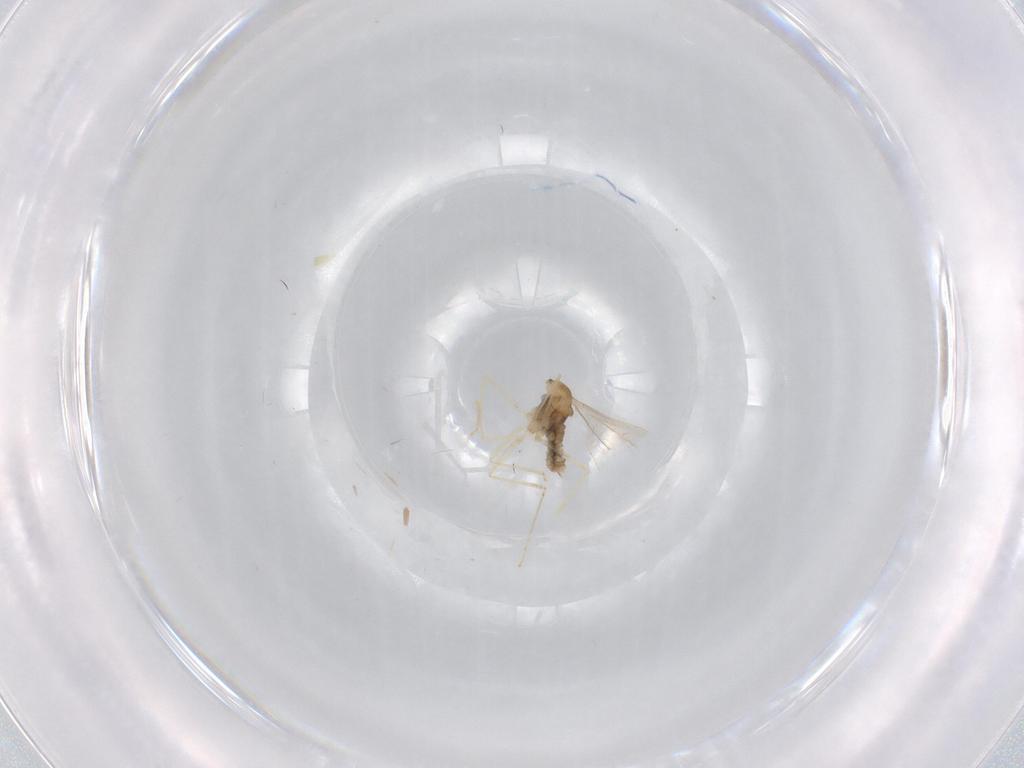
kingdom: Animalia
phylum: Arthropoda
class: Insecta
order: Diptera
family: Cecidomyiidae
